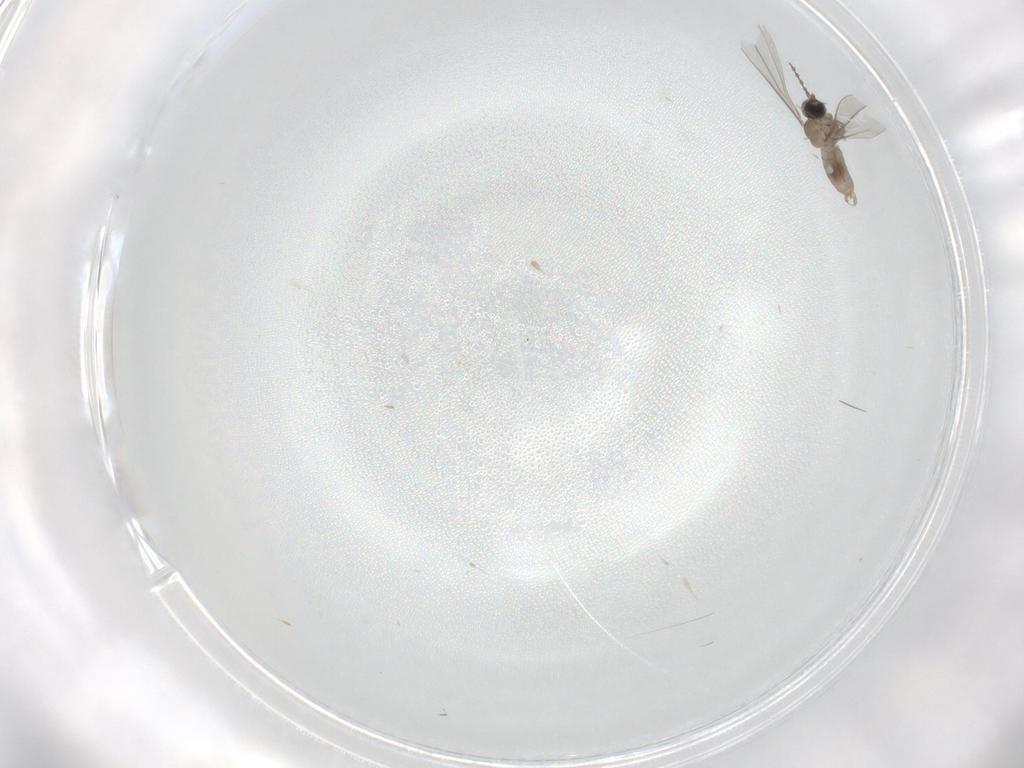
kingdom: Animalia
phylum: Arthropoda
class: Insecta
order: Diptera
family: Cecidomyiidae
